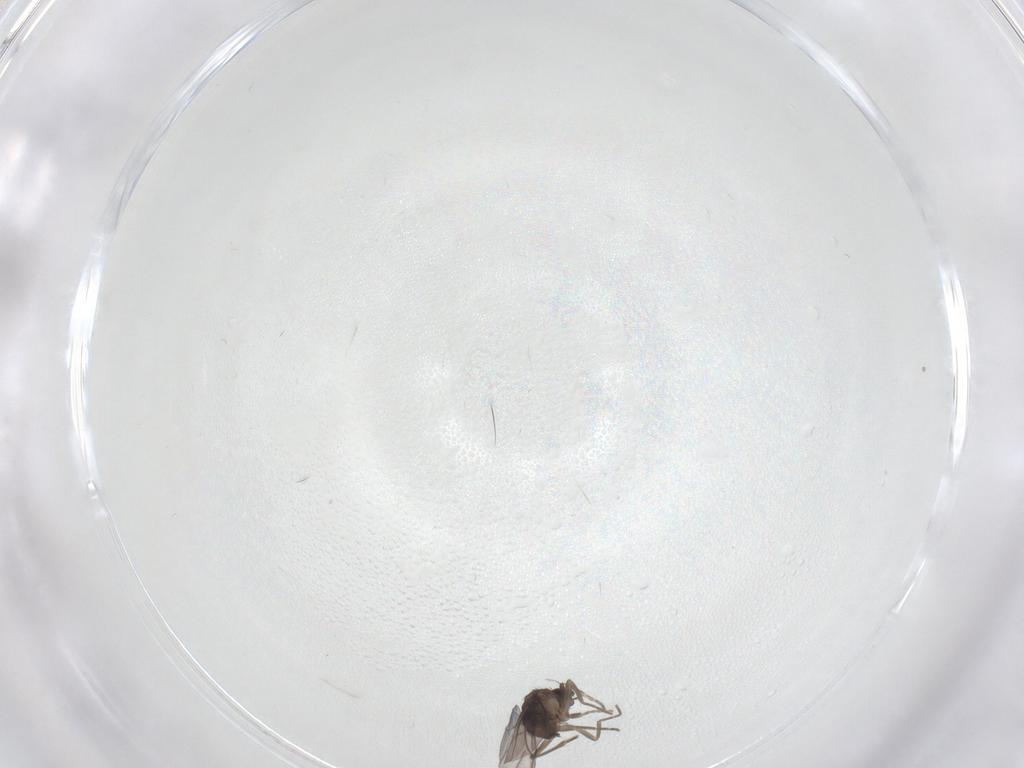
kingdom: Animalia
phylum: Arthropoda
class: Insecta
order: Diptera
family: Phoridae
